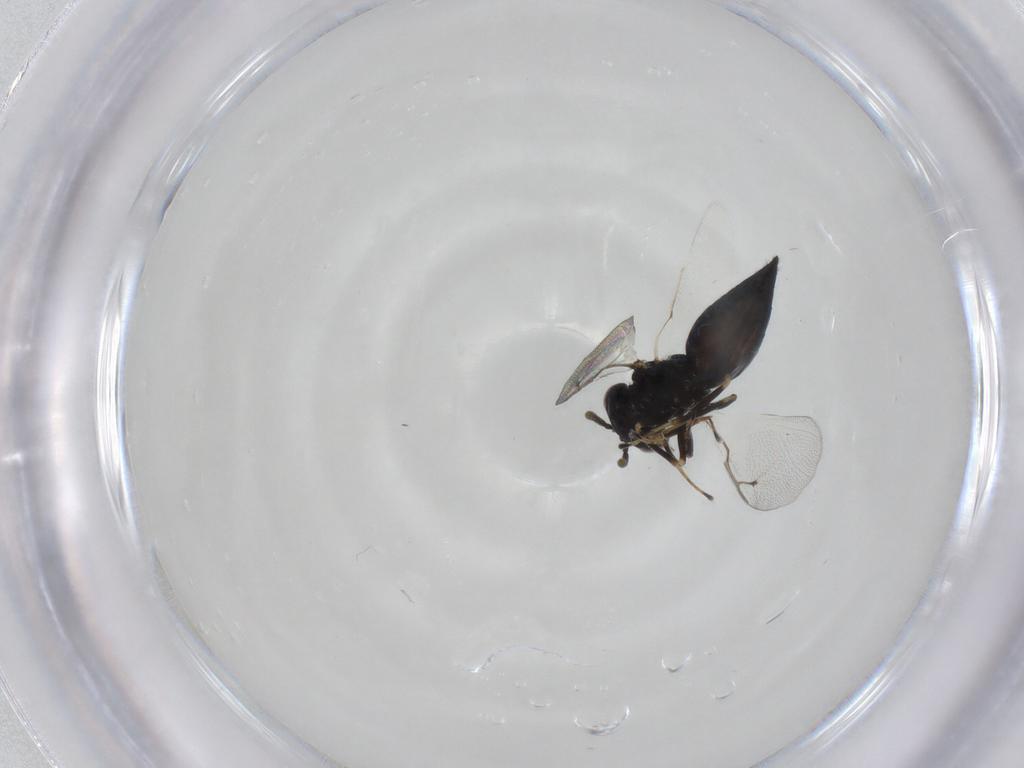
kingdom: Animalia
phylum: Arthropoda
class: Insecta
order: Hymenoptera
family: Pteromalidae
